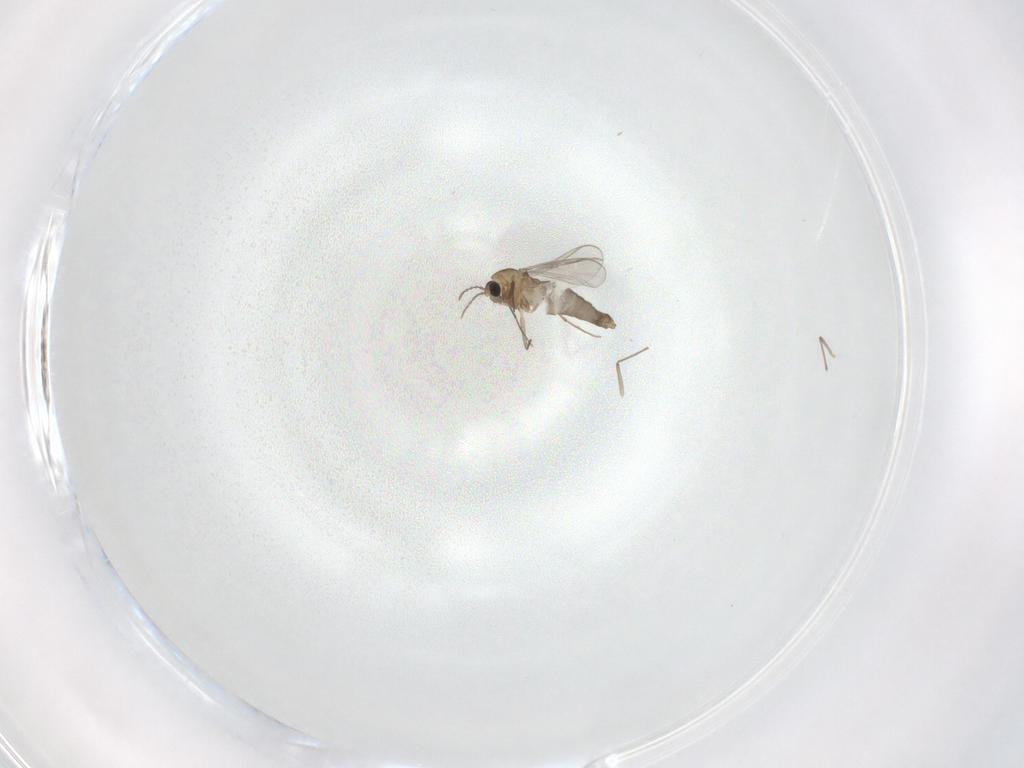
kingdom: Animalia
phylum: Arthropoda
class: Insecta
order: Diptera
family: Chironomidae
